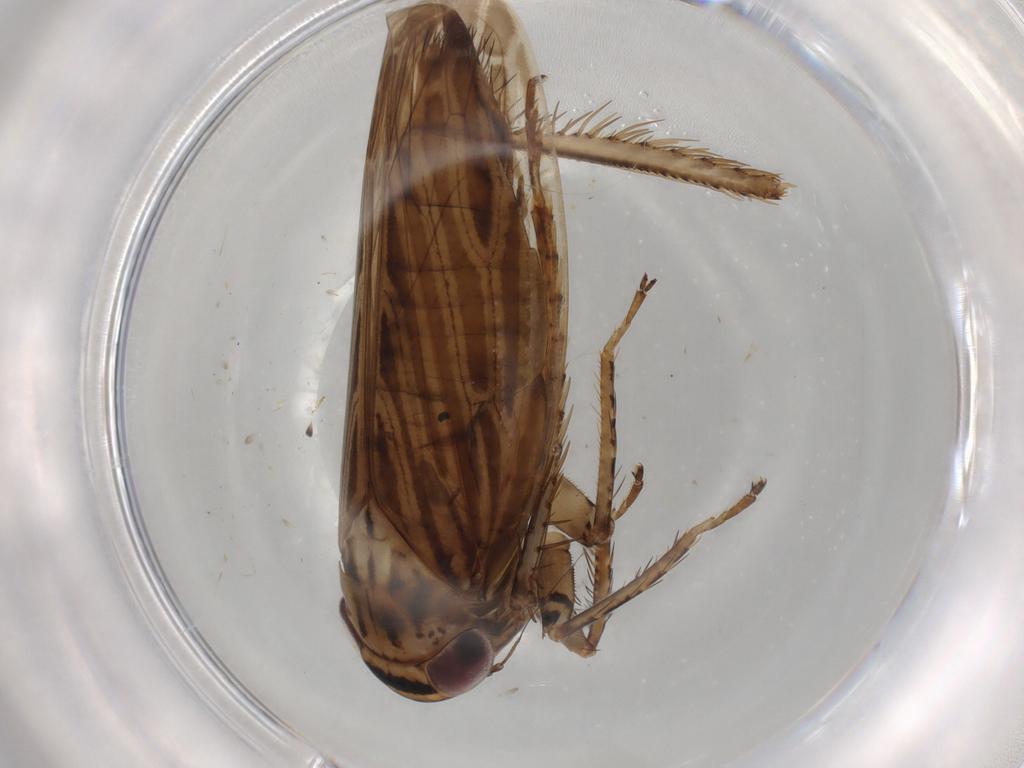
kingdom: Animalia
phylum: Arthropoda
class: Insecta
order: Hemiptera
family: Cicadellidae
